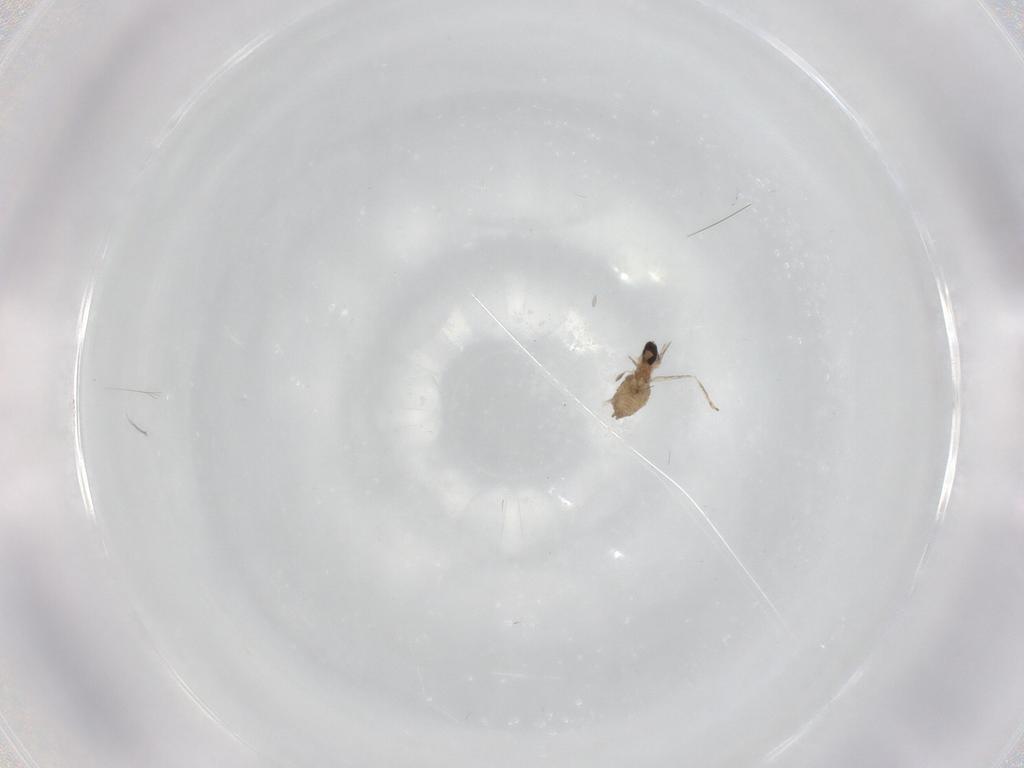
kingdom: Animalia
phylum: Arthropoda
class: Insecta
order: Diptera
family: Cecidomyiidae
